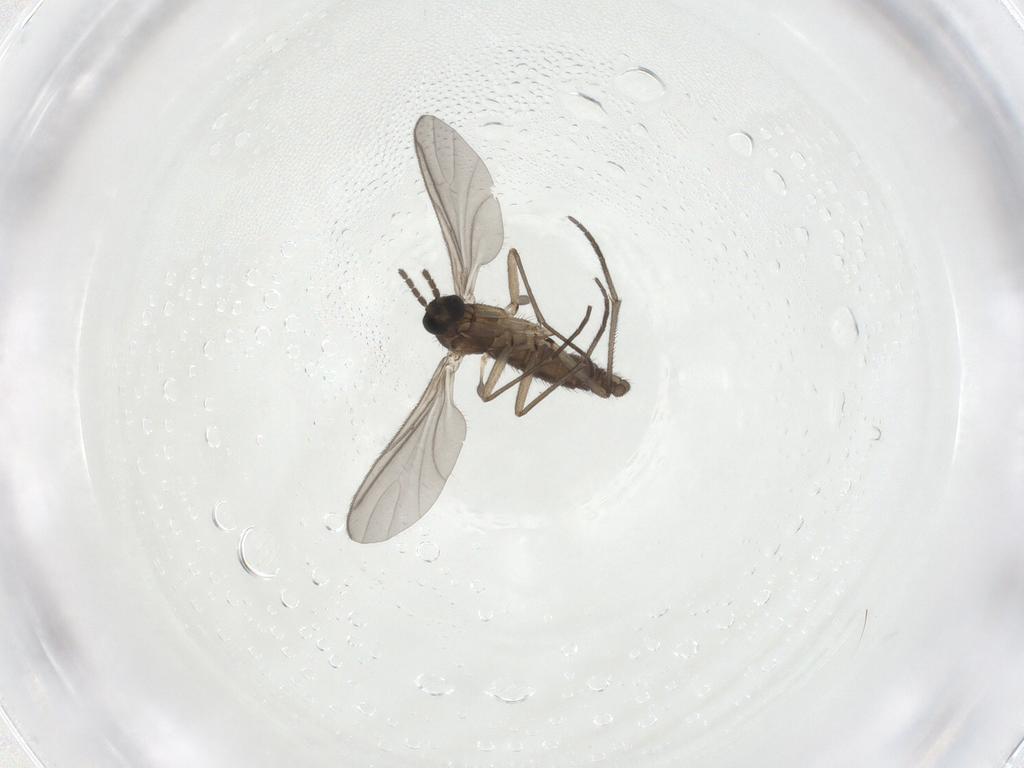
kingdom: Animalia
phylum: Arthropoda
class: Insecta
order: Diptera
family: Sciaridae
